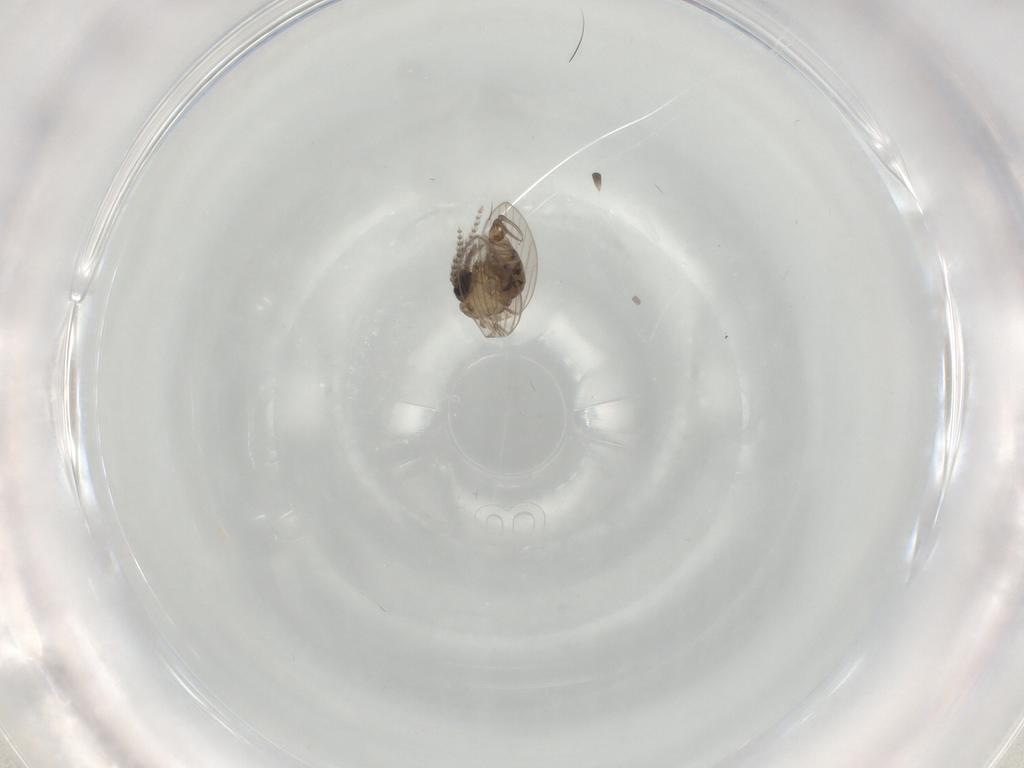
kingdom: Animalia
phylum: Arthropoda
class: Insecta
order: Diptera
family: Psychodidae
